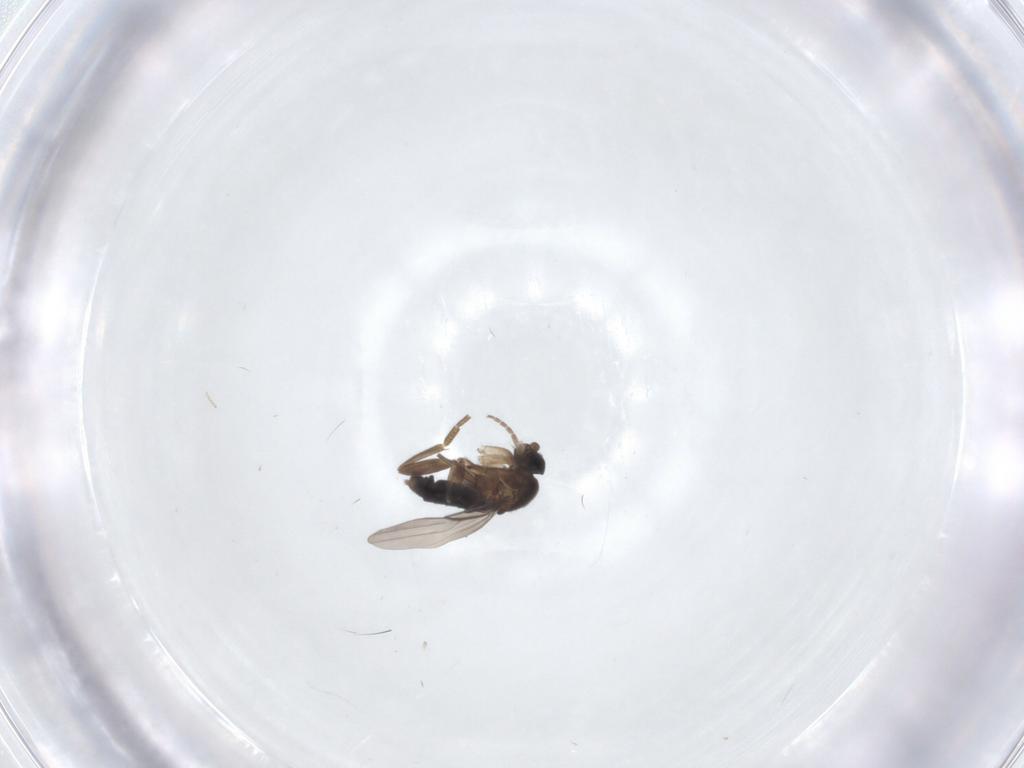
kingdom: Animalia
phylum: Arthropoda
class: Insecta
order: Diptera
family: Phoridae
